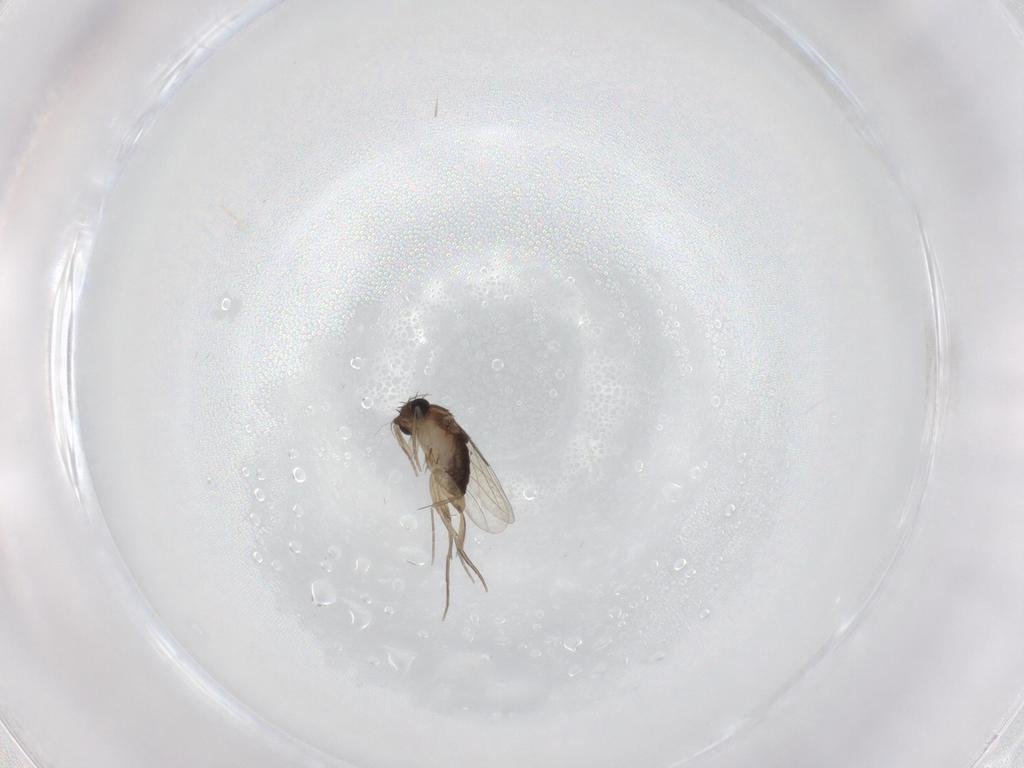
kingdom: Animalia
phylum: Arthropoda
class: Insecta
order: Diptera
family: Phoridae
